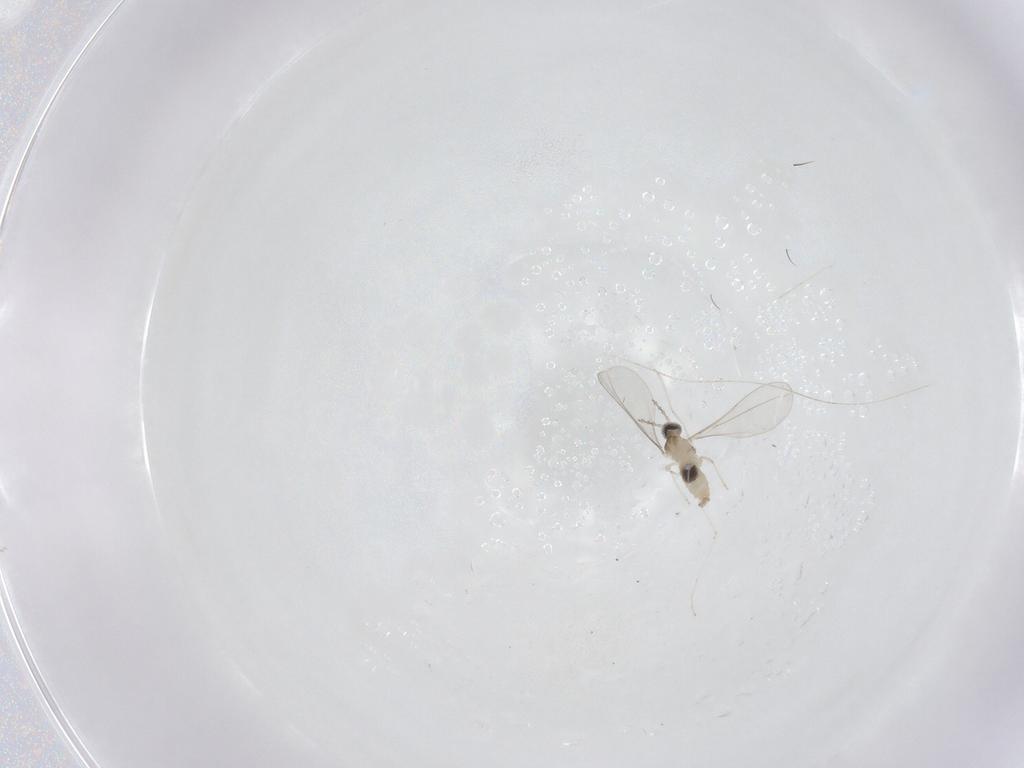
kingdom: Animalia
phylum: Arthropoda
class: Insecta
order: Diptera
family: Cecidomyiidae
